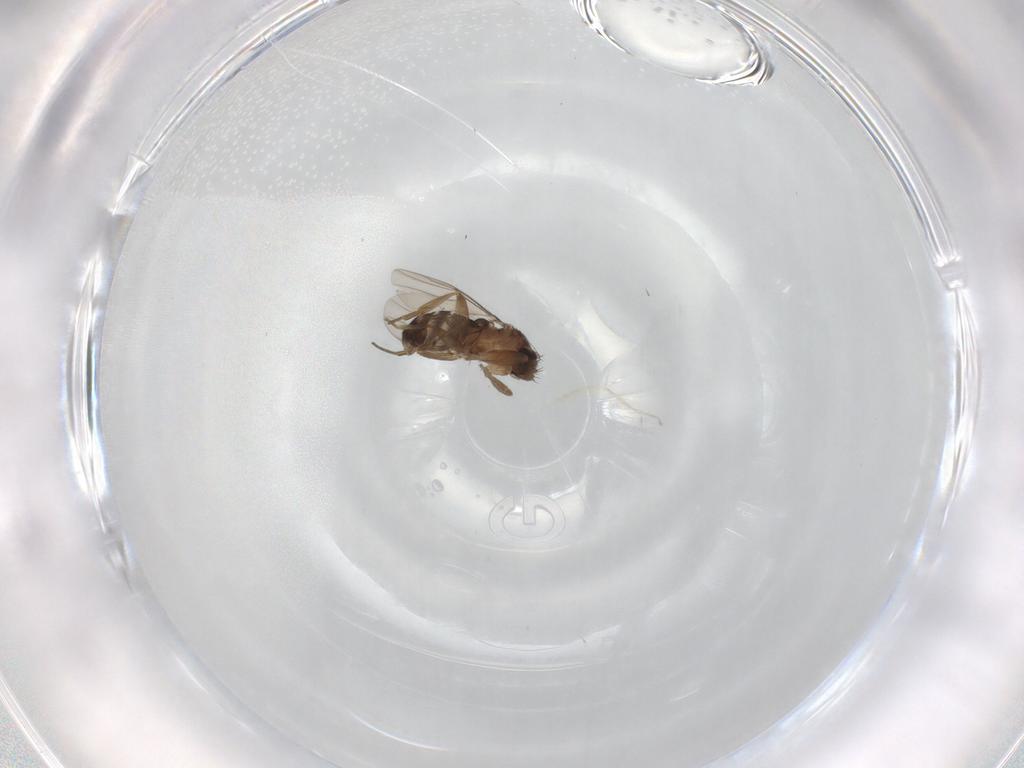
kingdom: Animalia
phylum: Arthropoda
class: Insecta
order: Diptera
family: Phoridae
